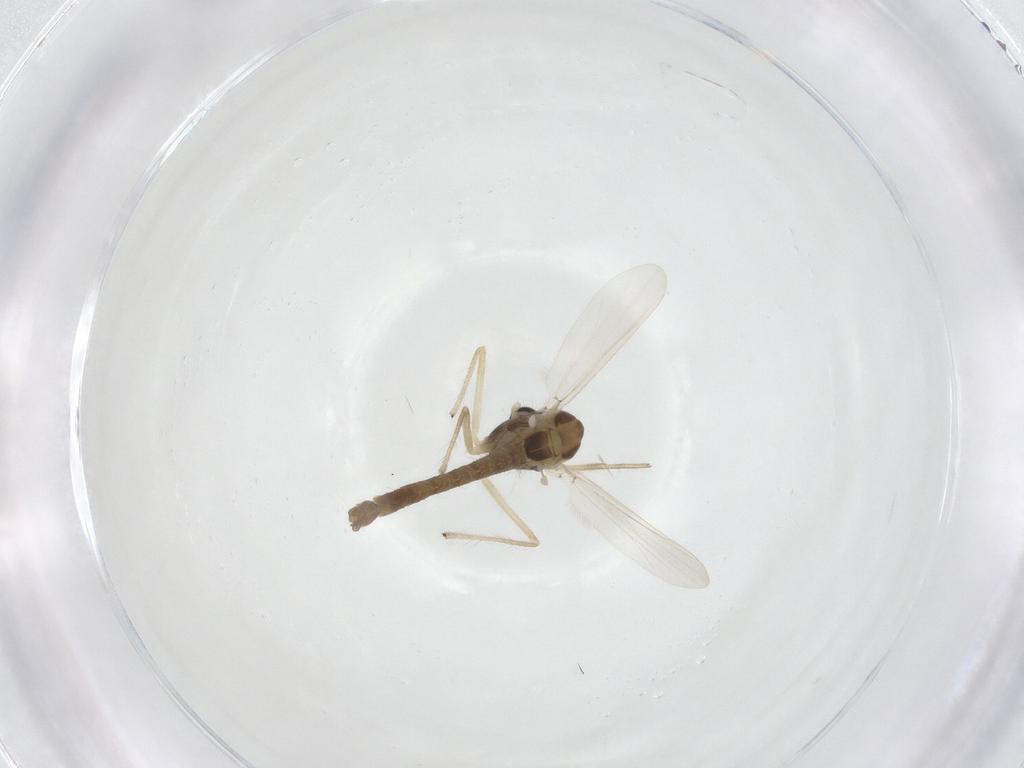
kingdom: Animalia
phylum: Arthropoda
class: Insecta
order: Diptera
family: Chironomidae
